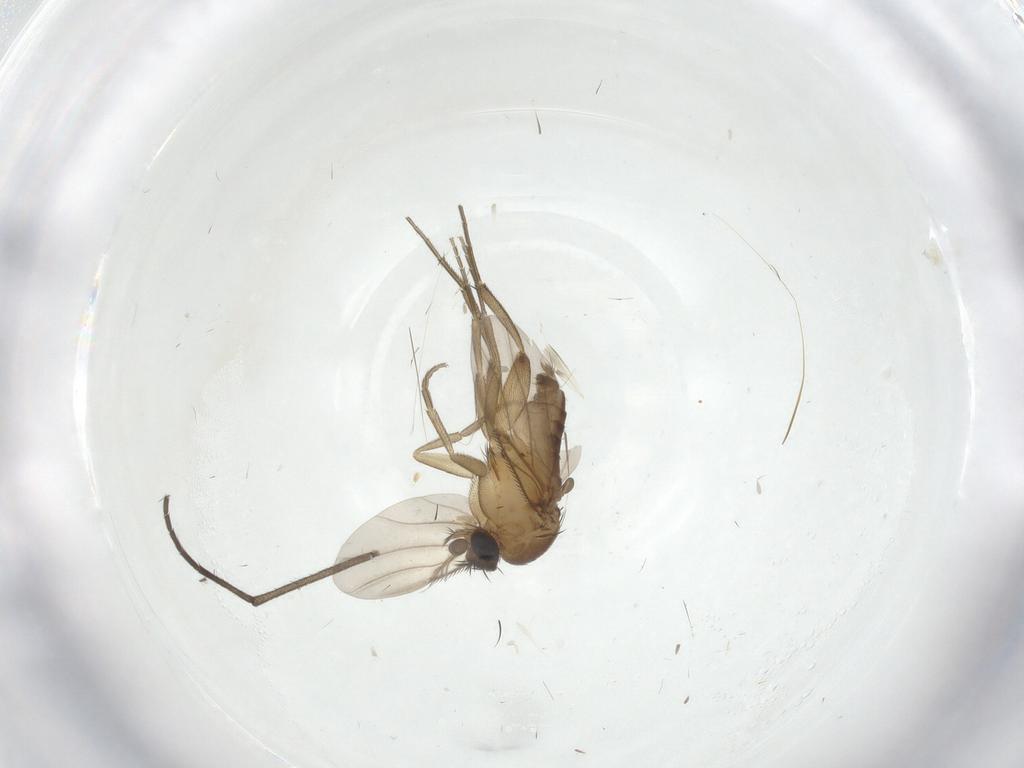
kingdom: Animalia
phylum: Arthropoda
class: Insecta
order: Diptera
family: Phoridae
